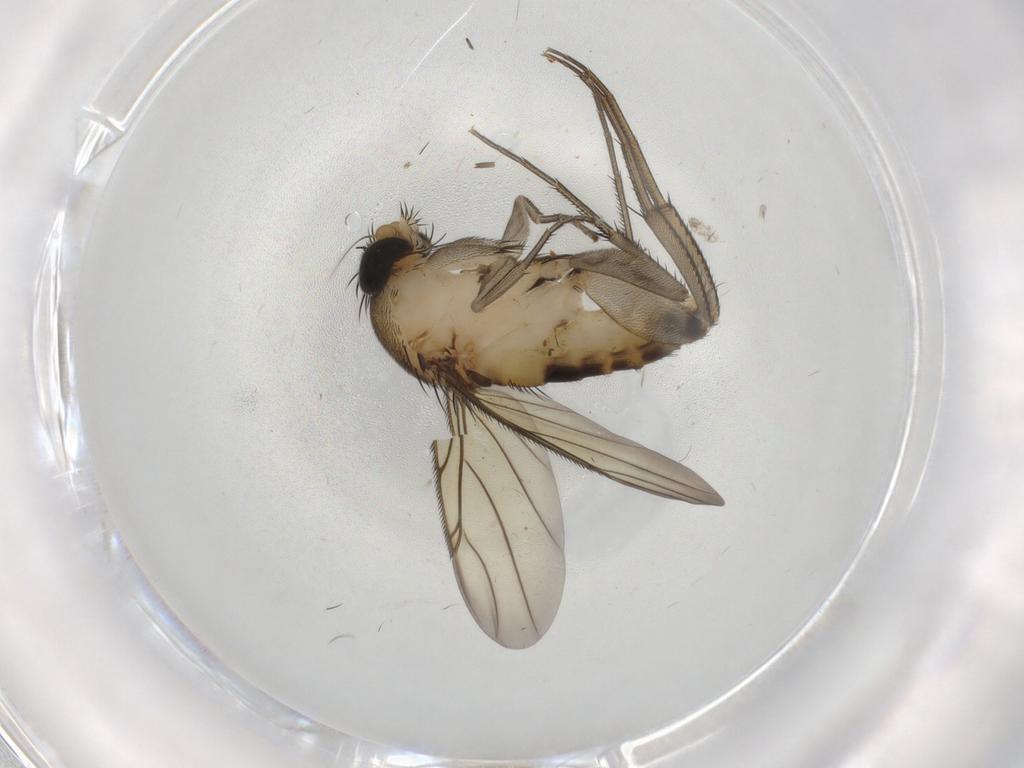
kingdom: Animalia
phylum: Arthropoda
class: Insecta
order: Diptera
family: Phoridae
